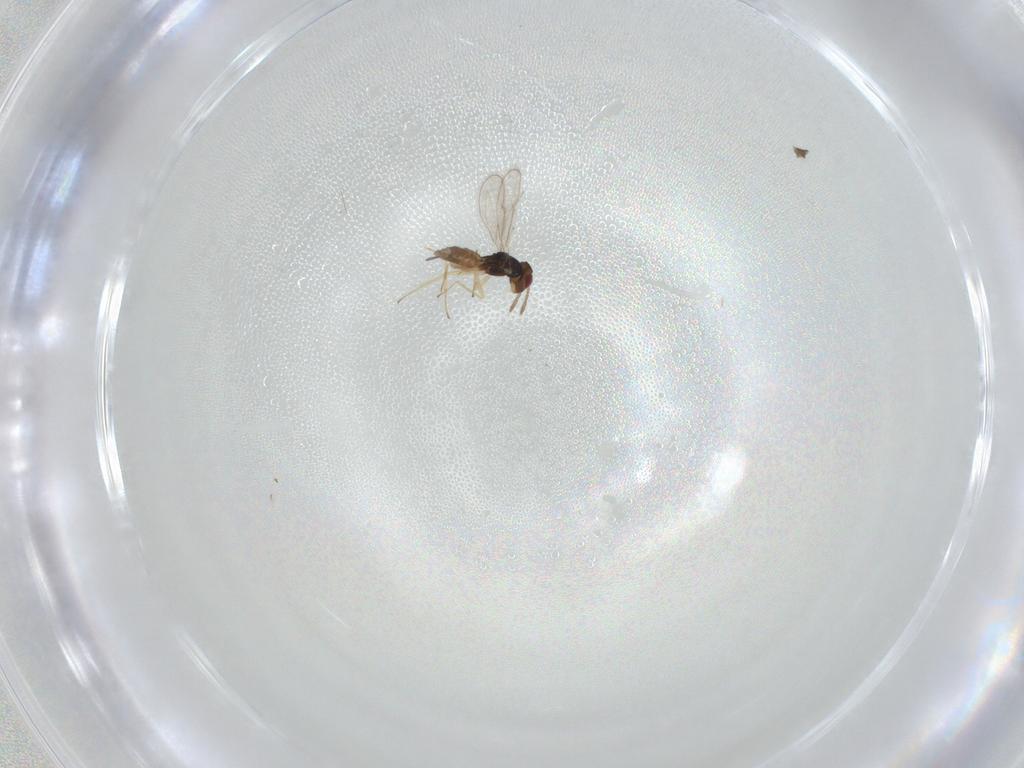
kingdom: Animalia
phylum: Arthropoda
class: Insecta
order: Hymenoptera
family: Eulophidae
